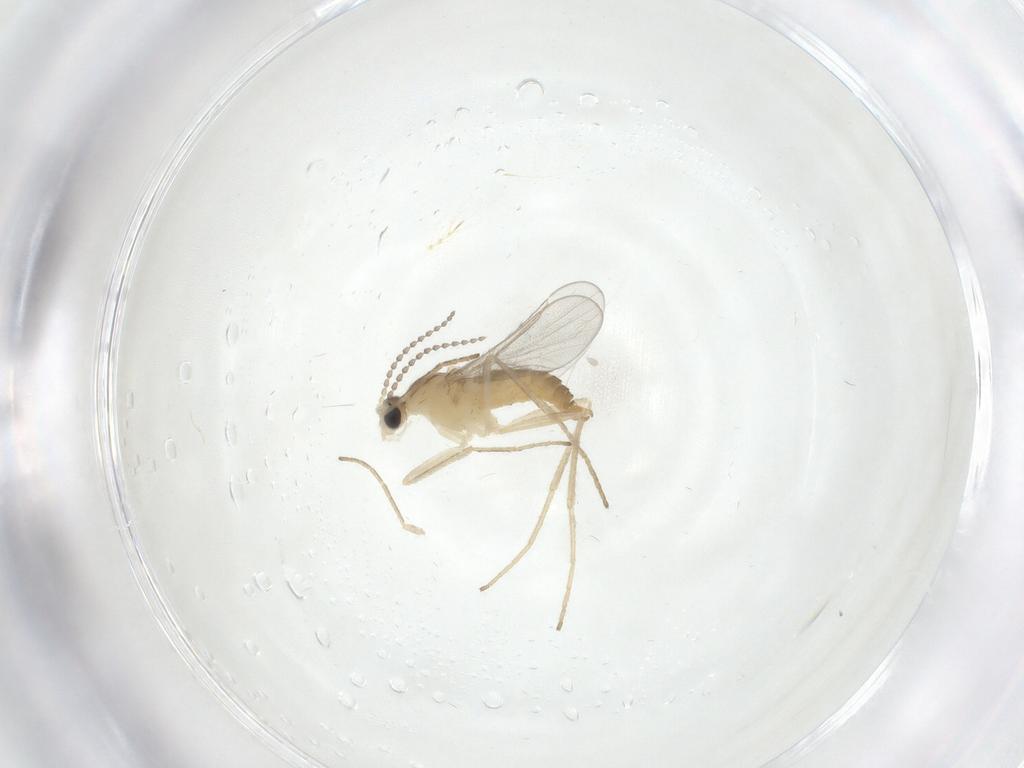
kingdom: Animalia
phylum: Arthropoda
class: Insecta
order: Diptera
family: Cecidomyiidae
